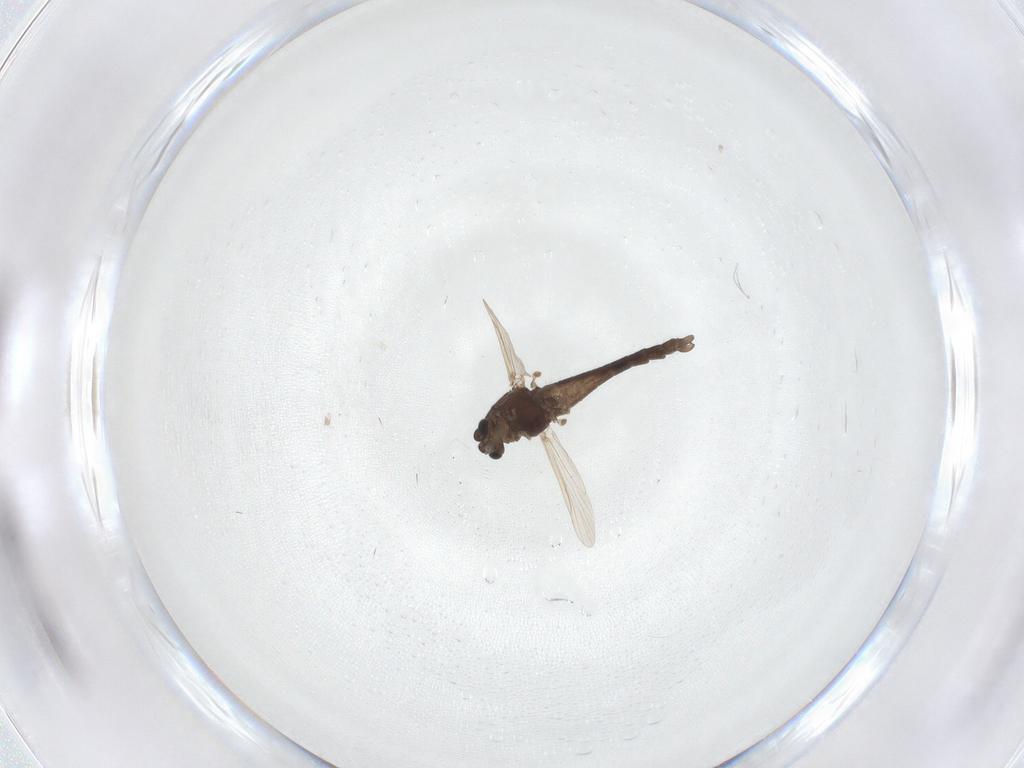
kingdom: Animalia
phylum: Arthropoda
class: Insecta
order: Diptera
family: Chironomidae
